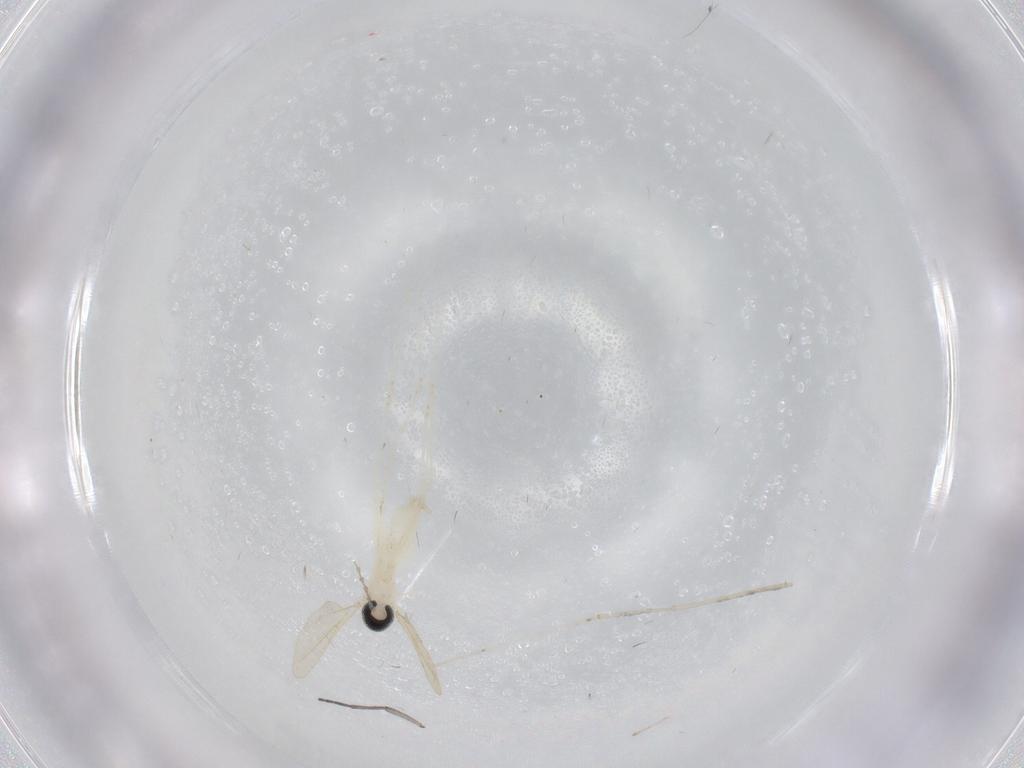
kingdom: Animalia
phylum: Arthropoda
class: Insecta
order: Diptera
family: Cecidomyiidae
